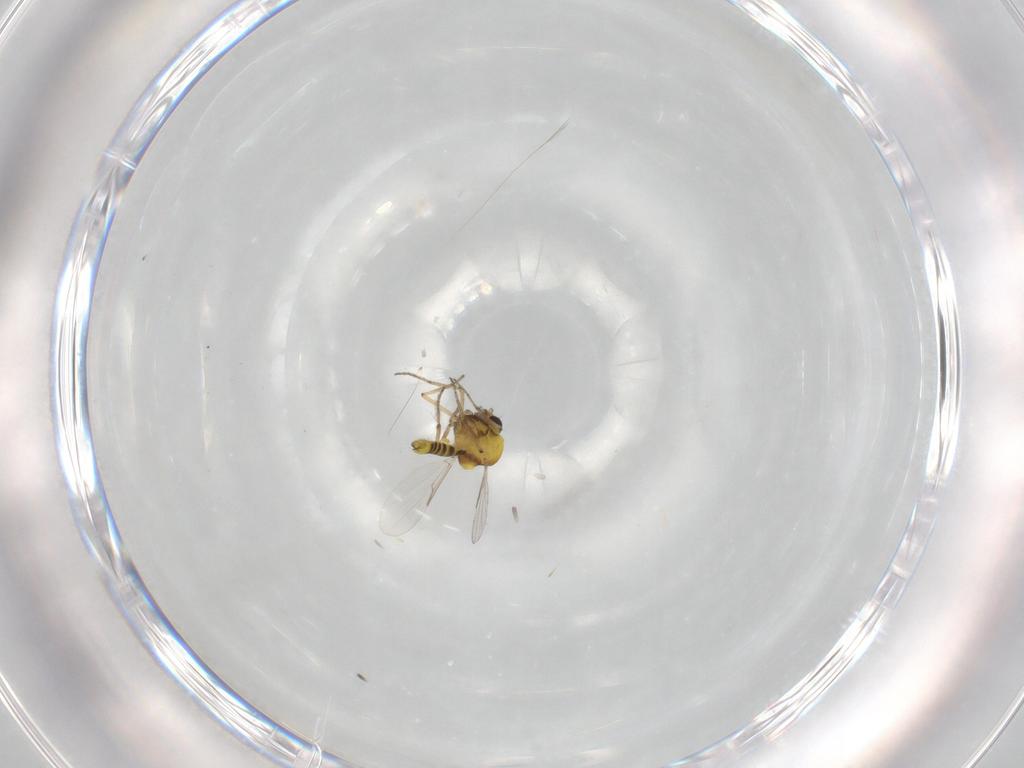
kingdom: Animalia
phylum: Arthropoda
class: Insecta
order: Diptera
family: Ceratopogonidae
